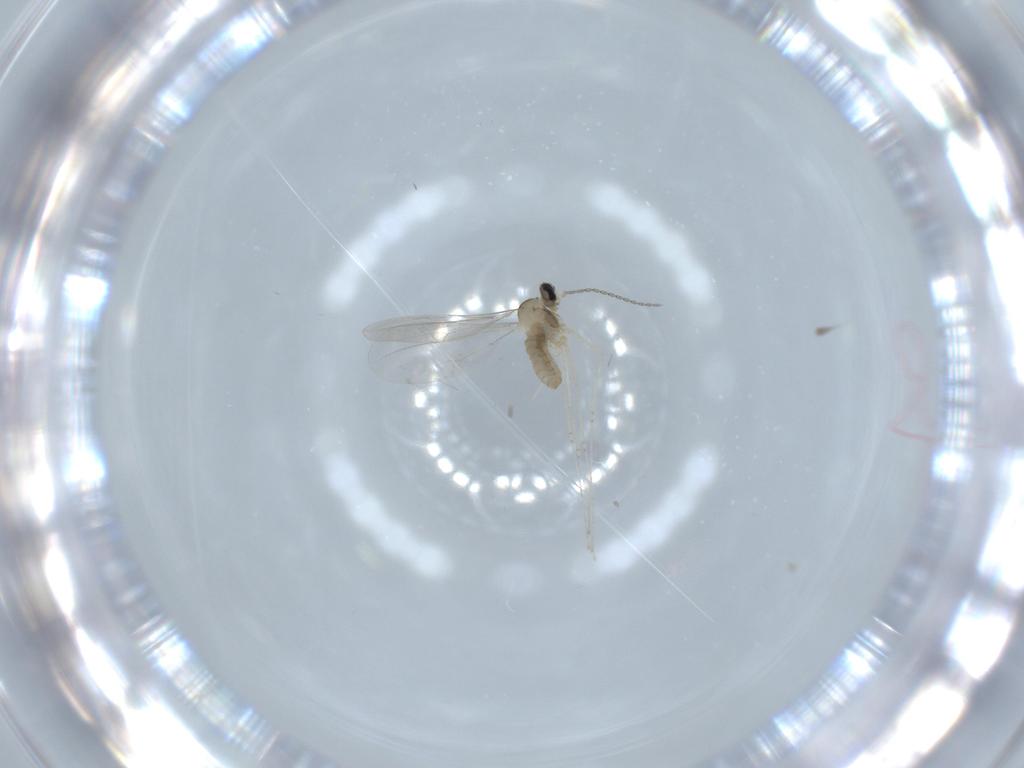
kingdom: Animalia
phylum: Arthropoda
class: Insecta
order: Diptera
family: Cecidomyiidae
